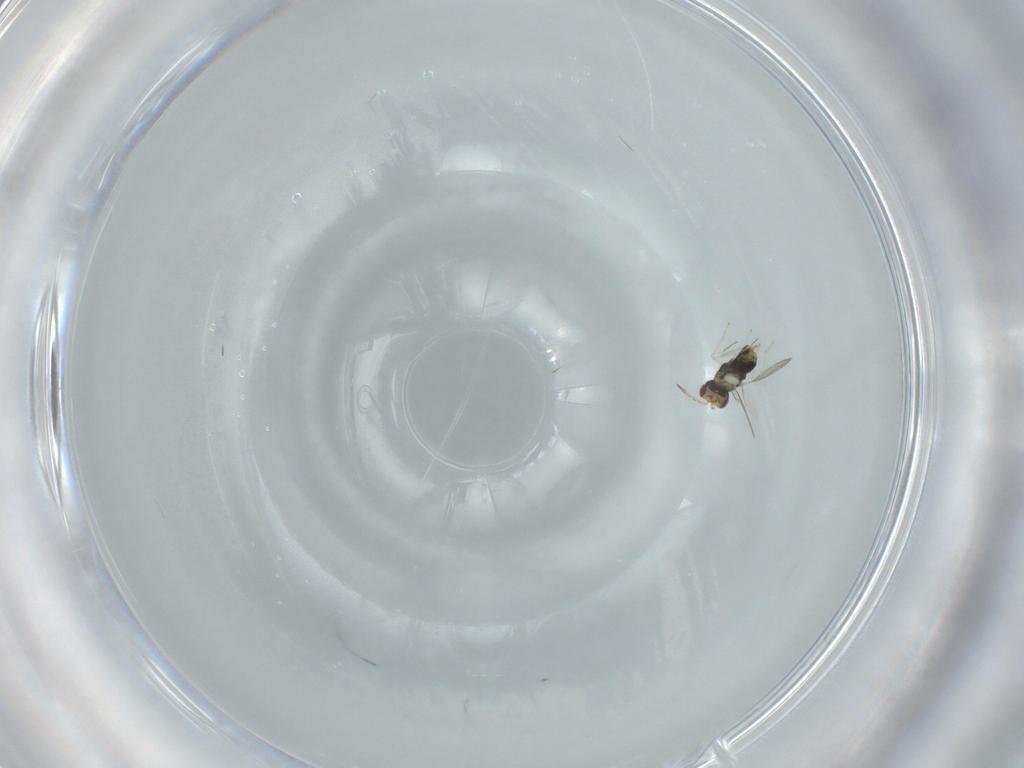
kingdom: Animalia
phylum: Arthropoda
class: Insecta
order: Hymenoptera
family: Aphelinidae
